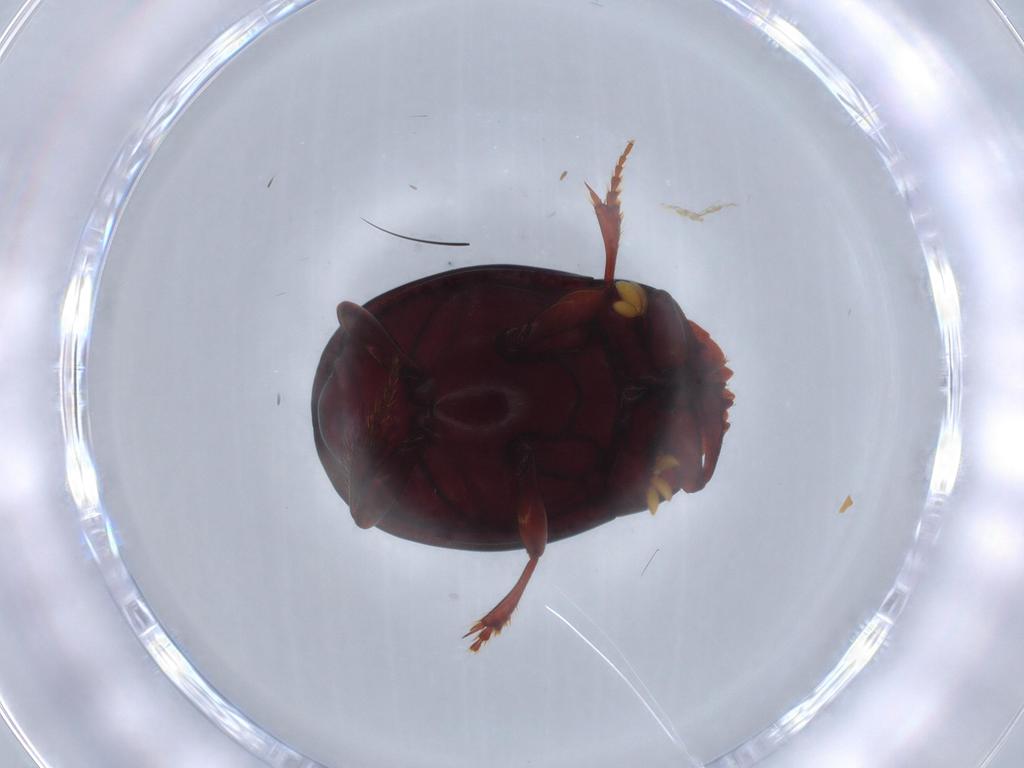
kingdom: Animalia
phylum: Arthropoda
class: Insecta
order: Coleoptera
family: Scarabaeidae
